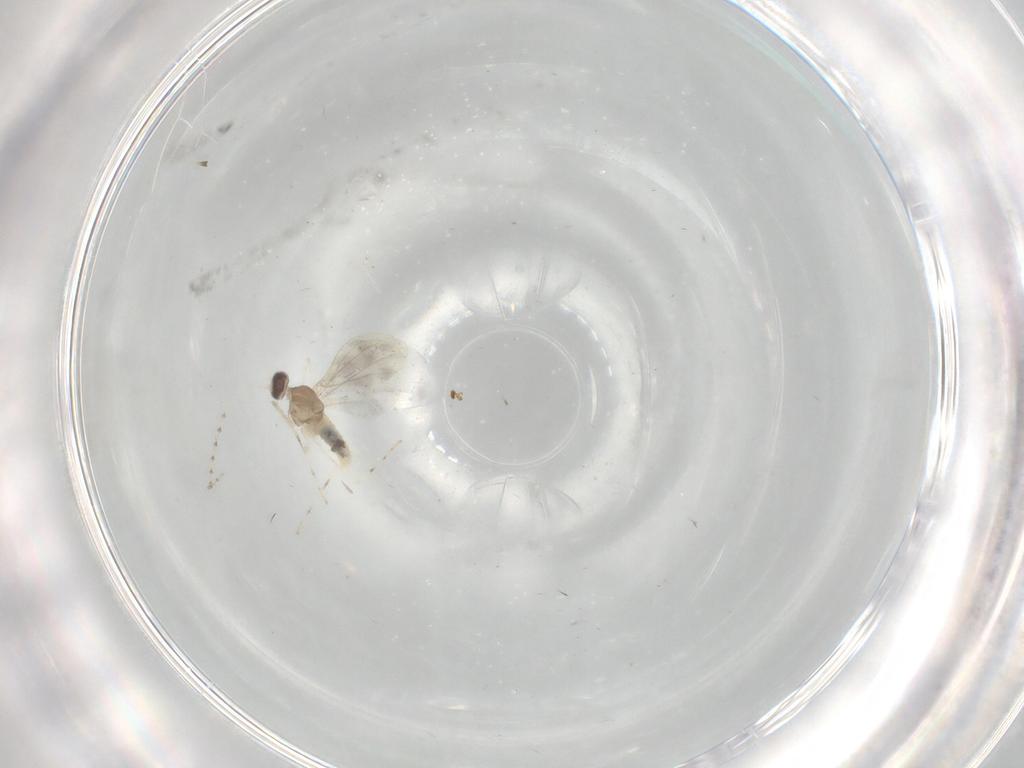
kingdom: Animalia
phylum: Arthropoda
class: Insecta
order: Diptera
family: Cecidomyiidae
